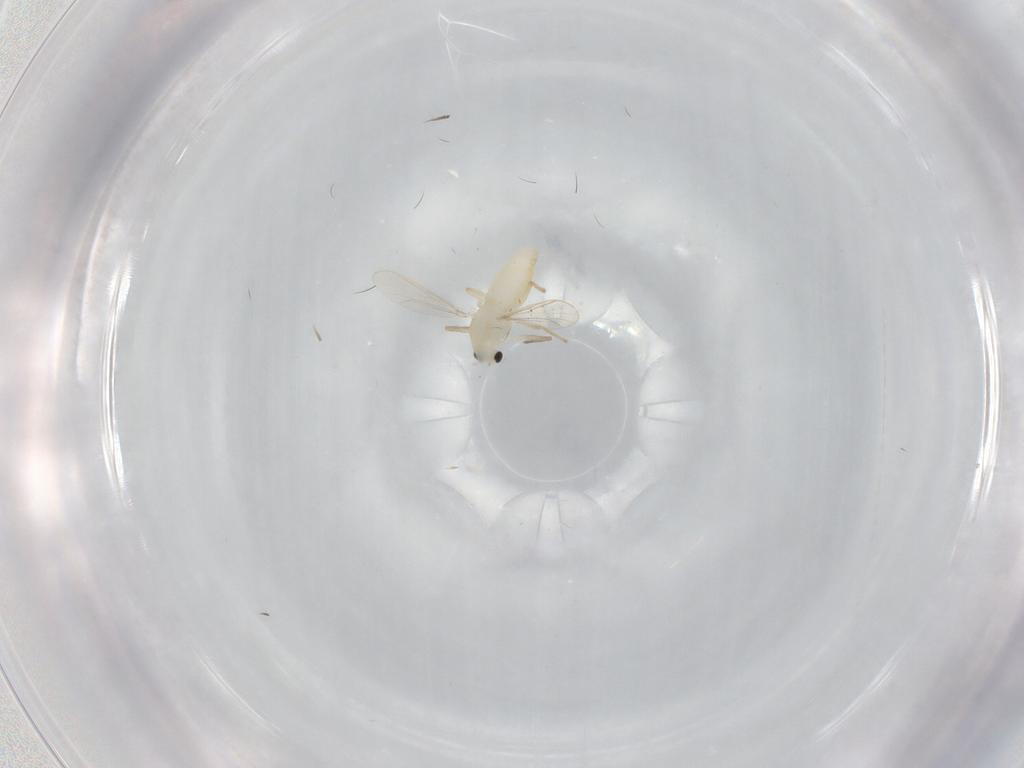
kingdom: Animalia
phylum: Arthropoda
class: Insecta
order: Diptera
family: Chironomidae
